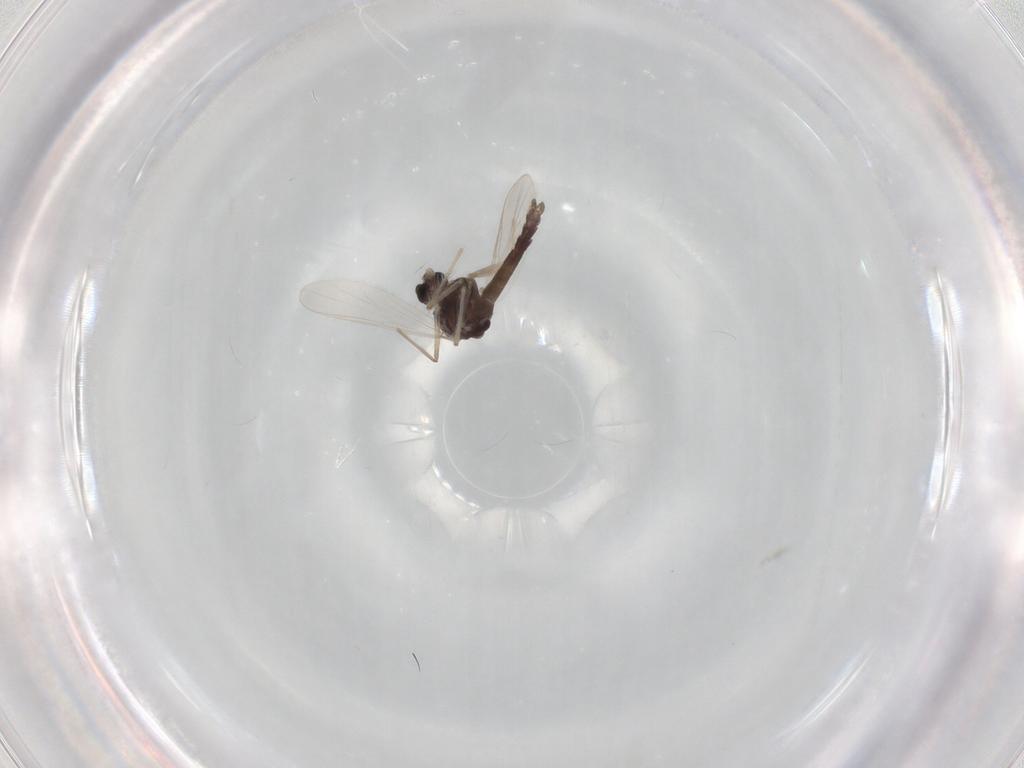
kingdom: Animalia
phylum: Arthropoda
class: Insecta
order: Diptera
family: Chironomidae
